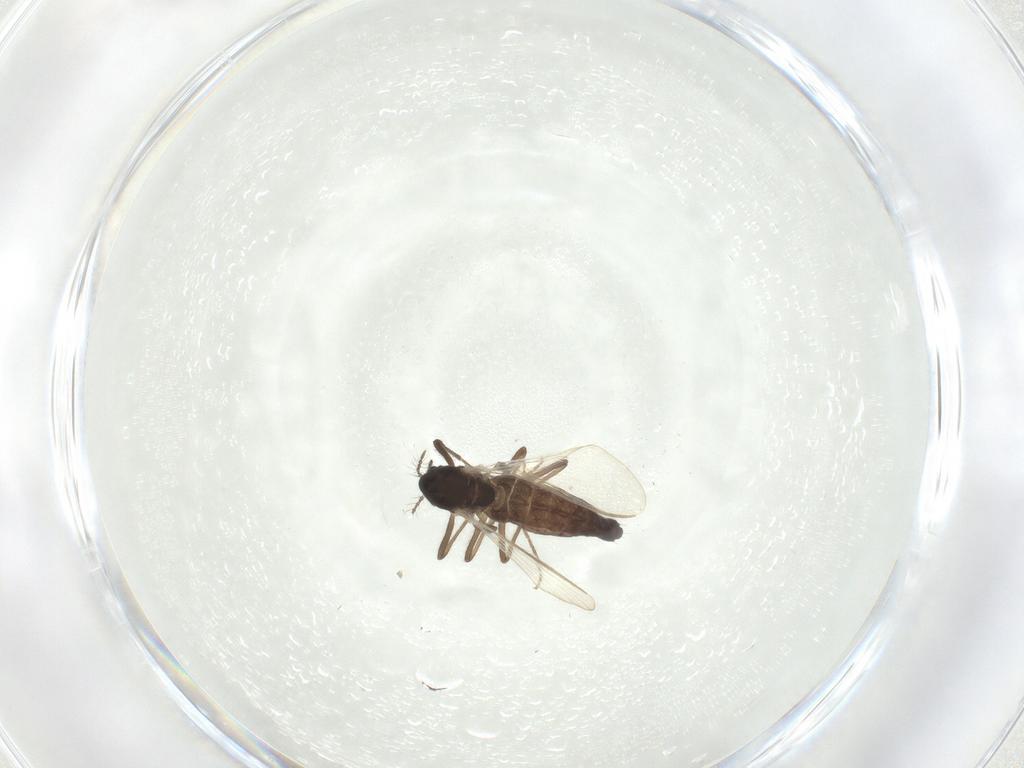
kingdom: Animalia
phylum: Arthropoda
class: Insecta
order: Diptera
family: Chironomidae
